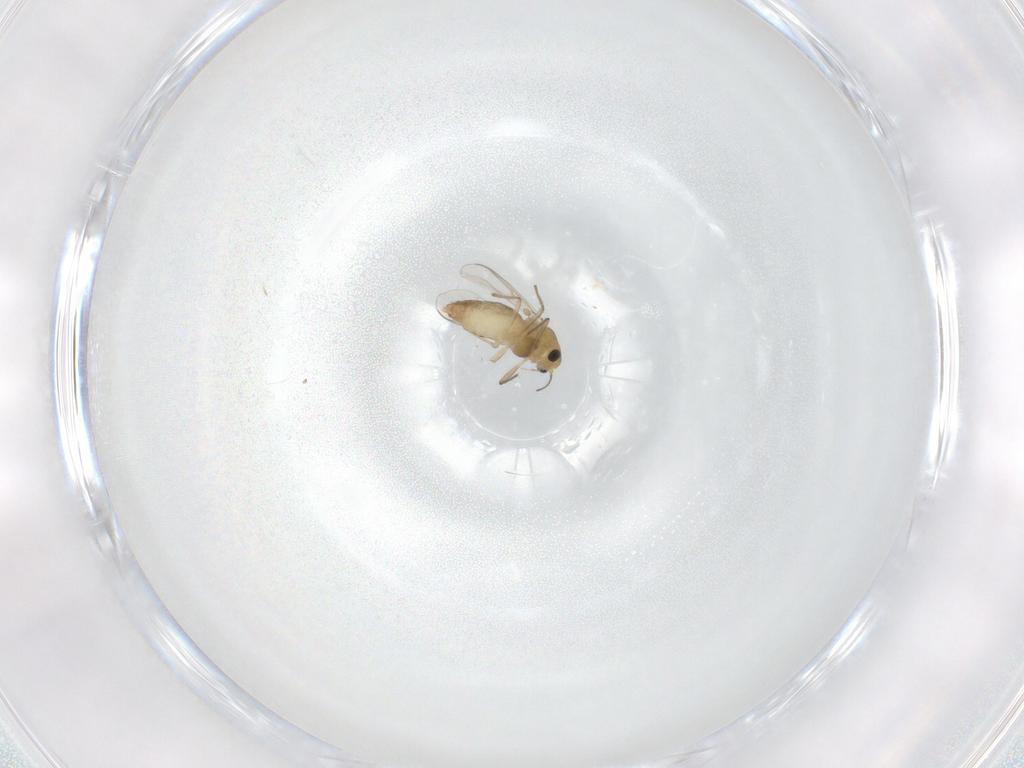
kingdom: Animalia
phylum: Arthropoda
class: Insecta
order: Diptera
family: Chironomidae
